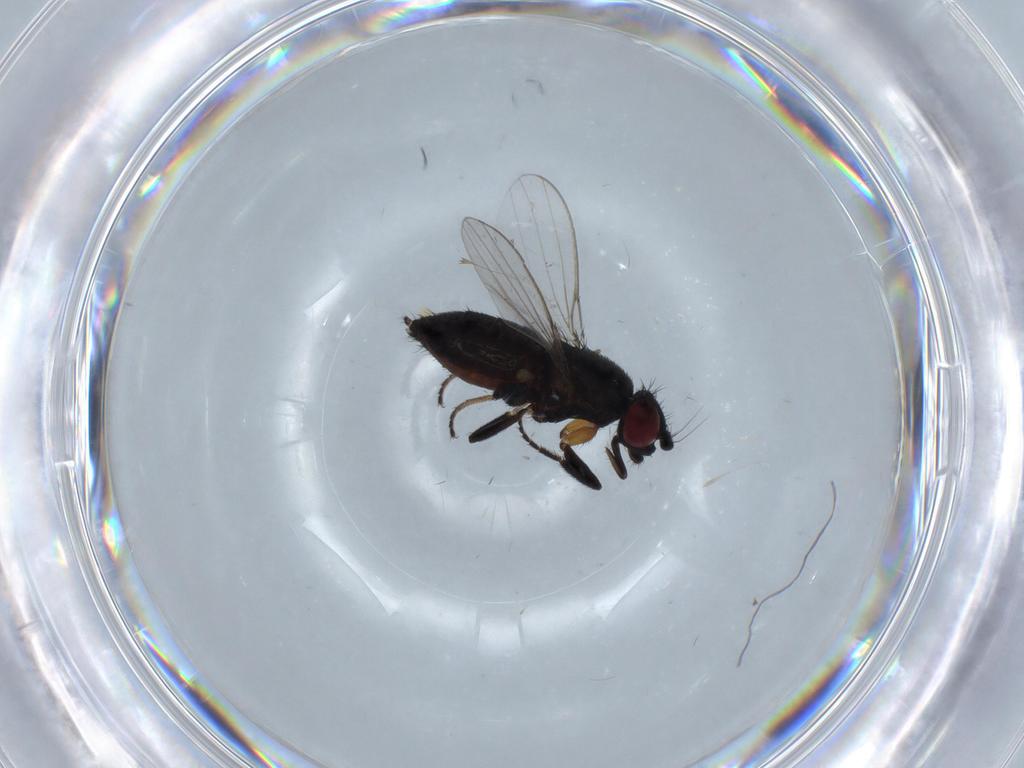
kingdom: Animalia
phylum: Arthropoda
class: Insecta
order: Diptera
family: Milichiidae
